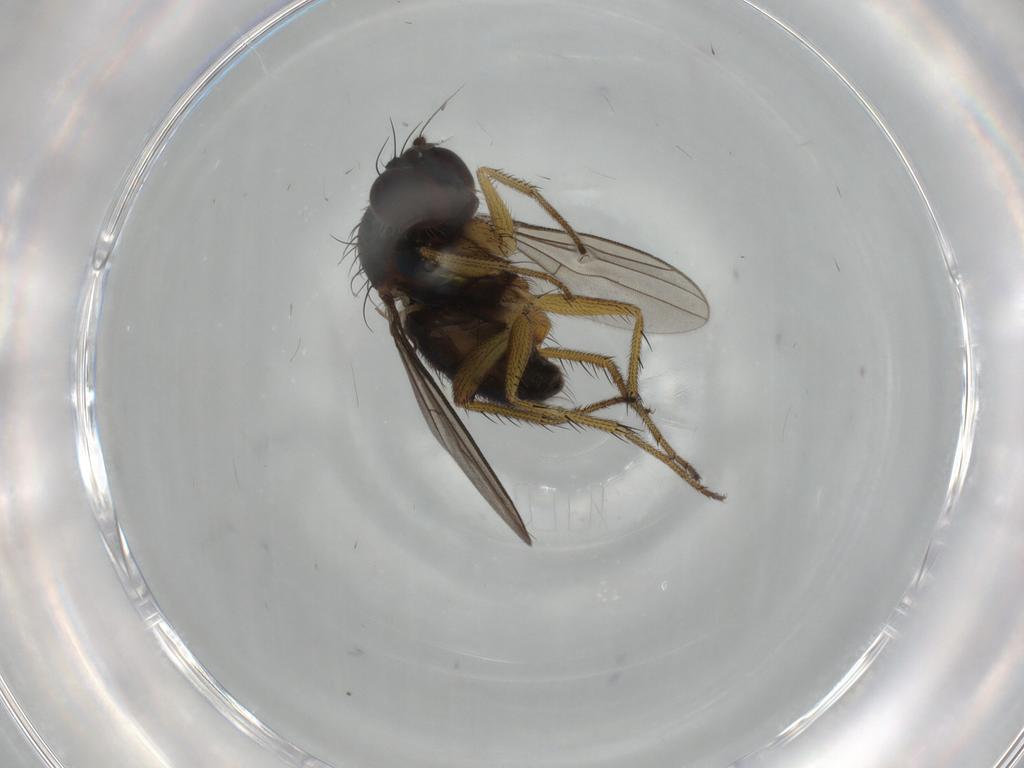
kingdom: Animalia
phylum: Arthropoda
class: Insecta
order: Diptera
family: Dolichopodidae
